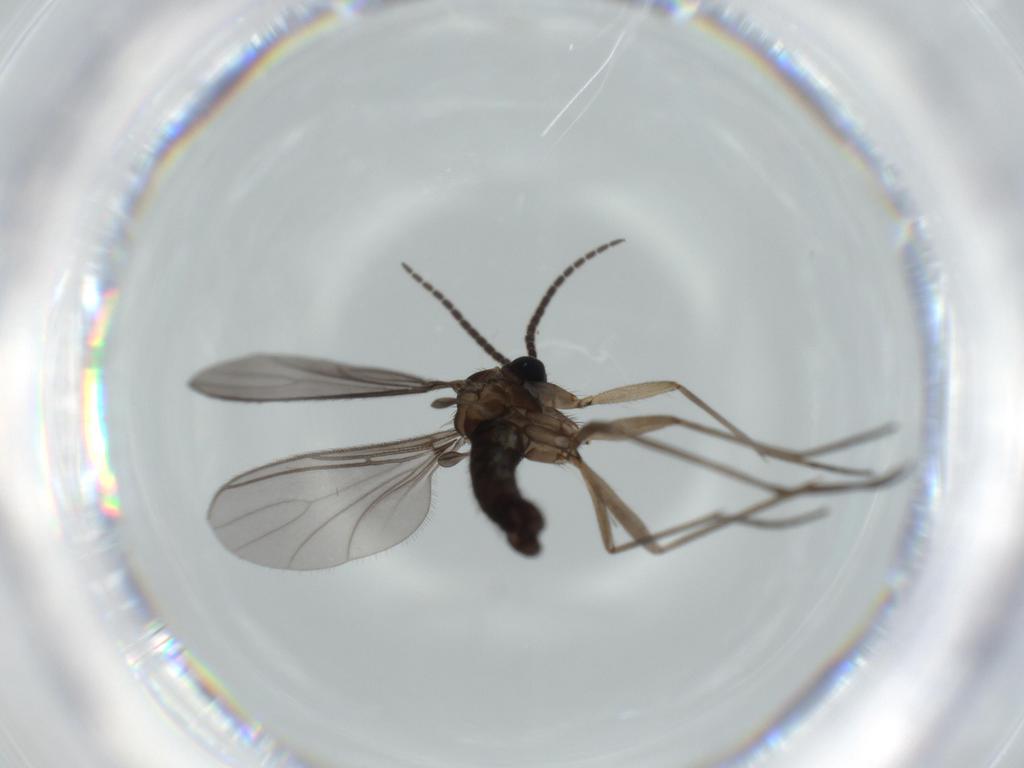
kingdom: Animalia
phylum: Arthropoda
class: Insecta
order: Diptera
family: Sciaridae
